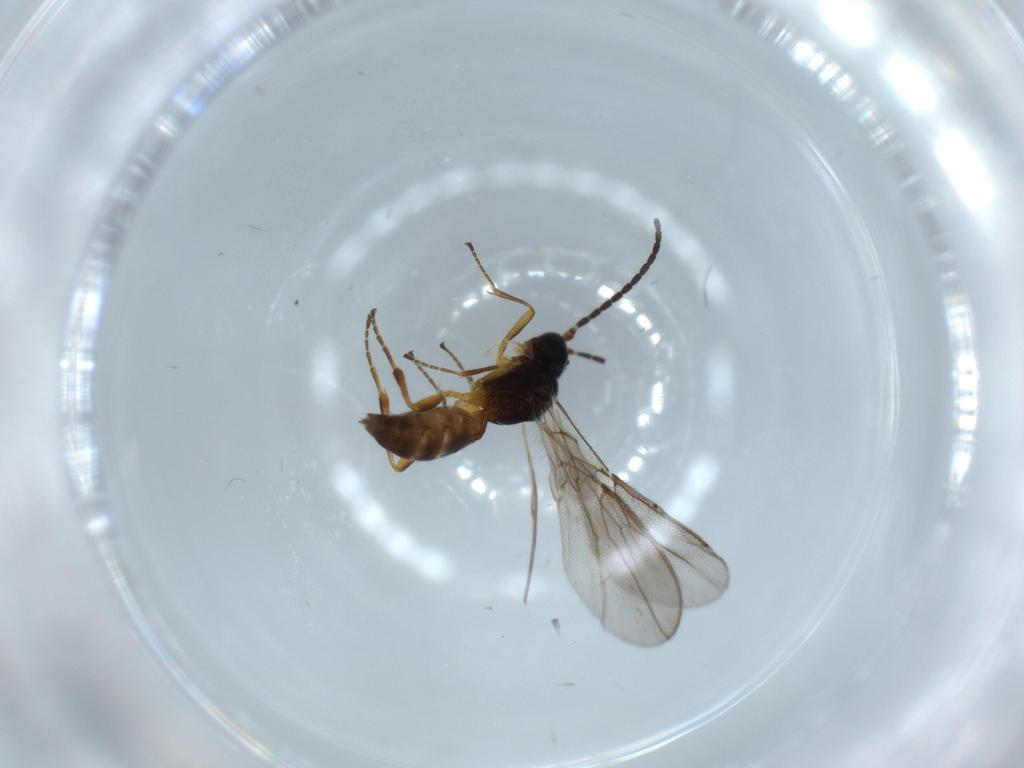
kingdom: Animalia
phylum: Arthropoda
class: Insecta
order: Hymenoptera
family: Braconidae
